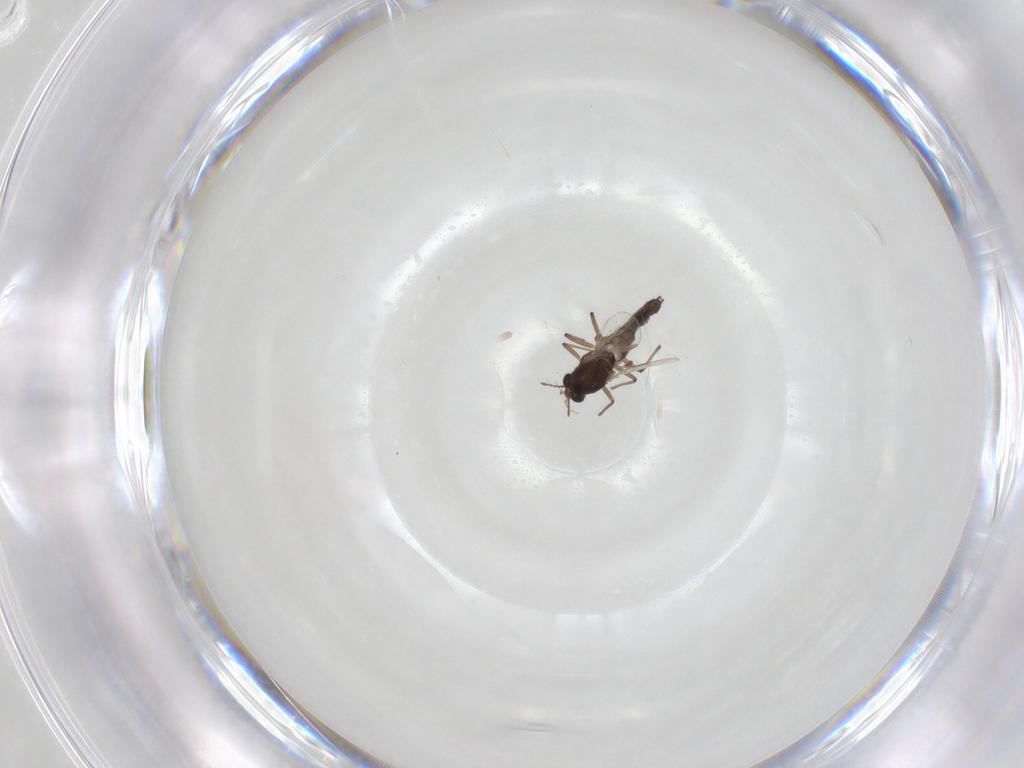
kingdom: Animalia
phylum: Arthropoda
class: Insecta
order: Diptera
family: Chironomidae
